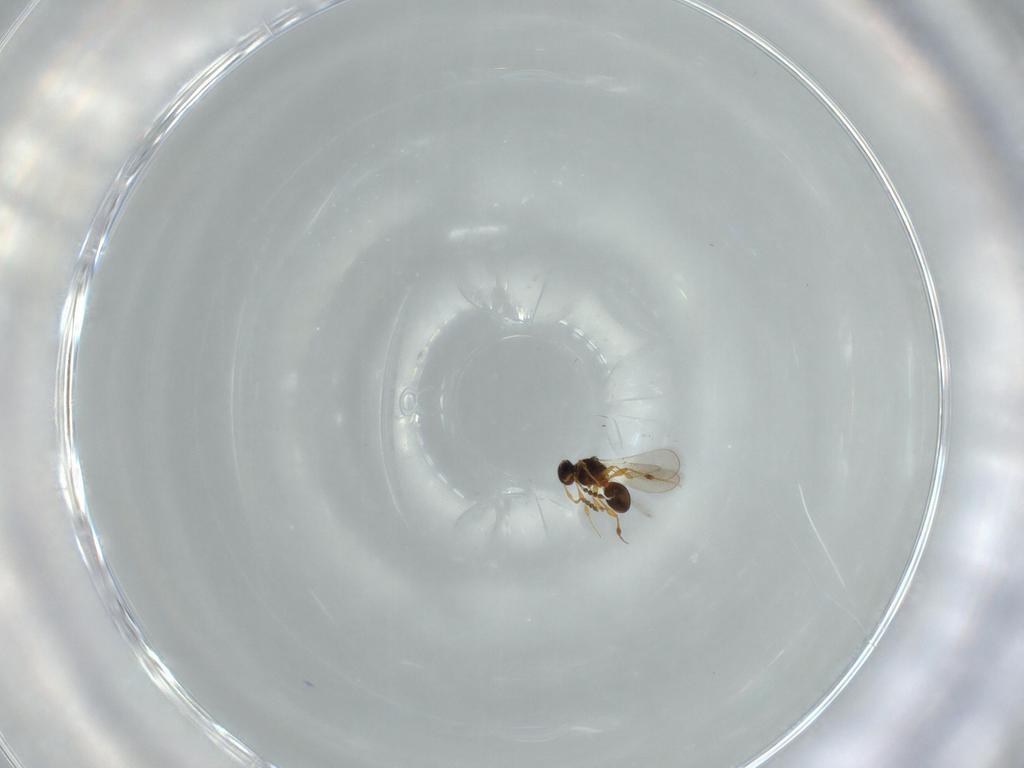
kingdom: Animalia
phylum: Arthropoda
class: Insecta
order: Hymenoptera
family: Platygastridae
